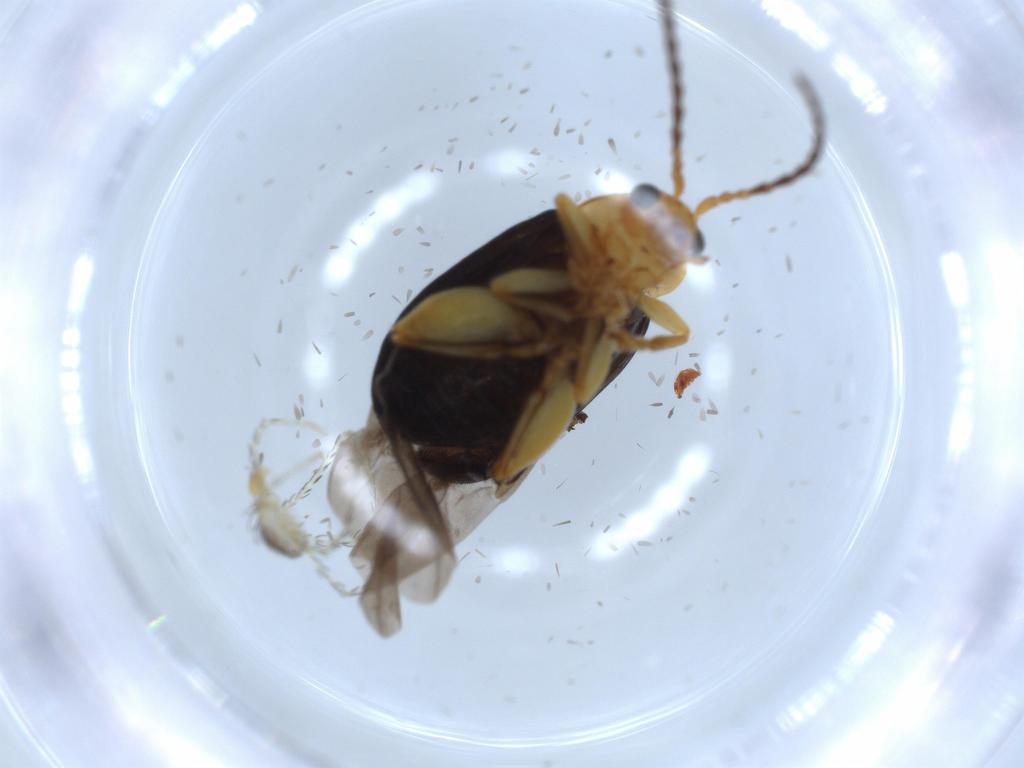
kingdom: Animalia
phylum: Arthropoda
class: Insecta
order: Coleoptera
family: Chrysomelidae
